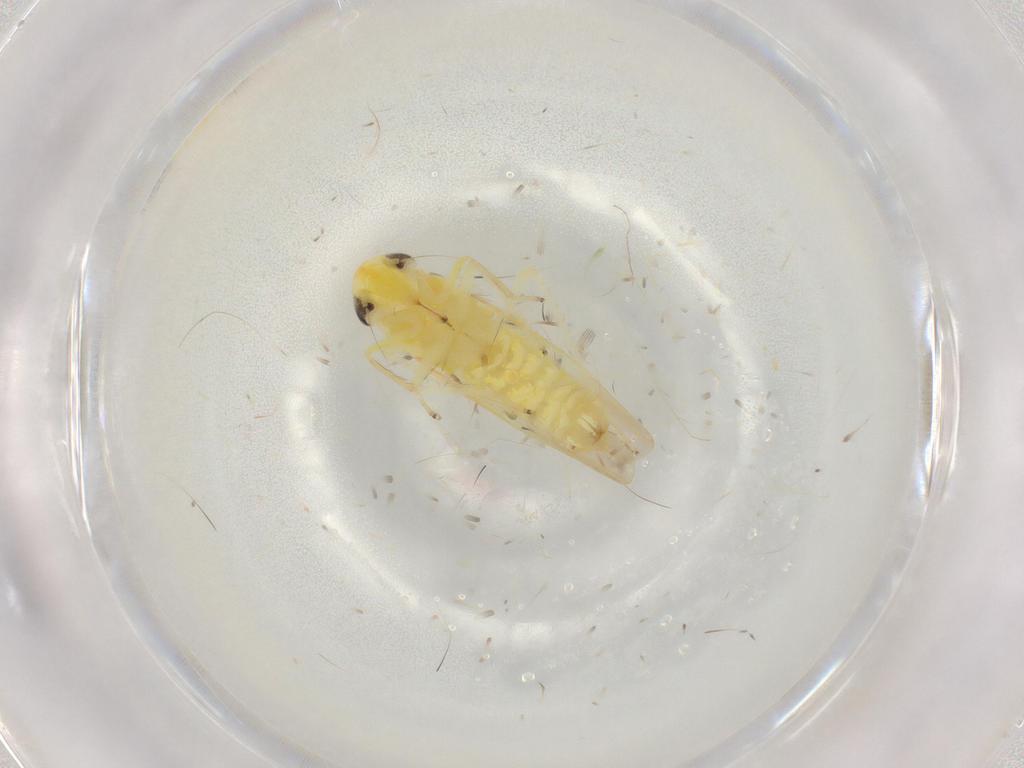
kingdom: Animalia
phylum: Arthropoda
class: Insecta
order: Hemiptera
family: Cicadellidae
